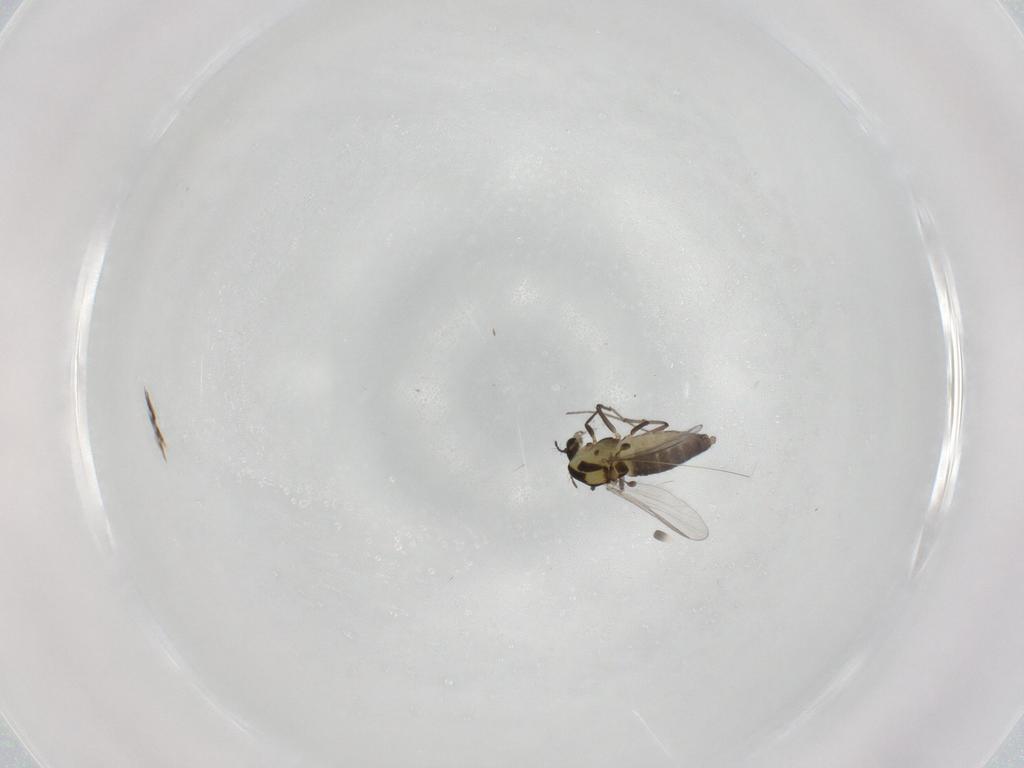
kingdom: Animalia
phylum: Arthropoda
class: Insecta
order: Diptera
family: Chironomidae
